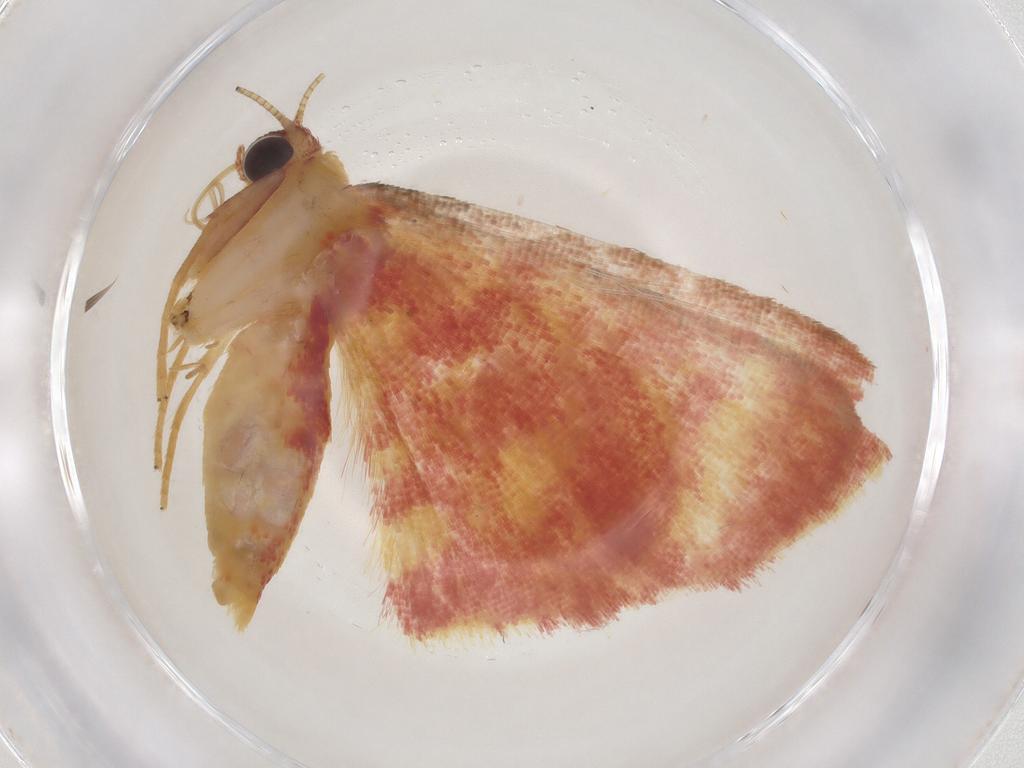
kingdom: Animalia
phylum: Arthropoda
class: Insecta
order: Lepidoptera
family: Geometridae
